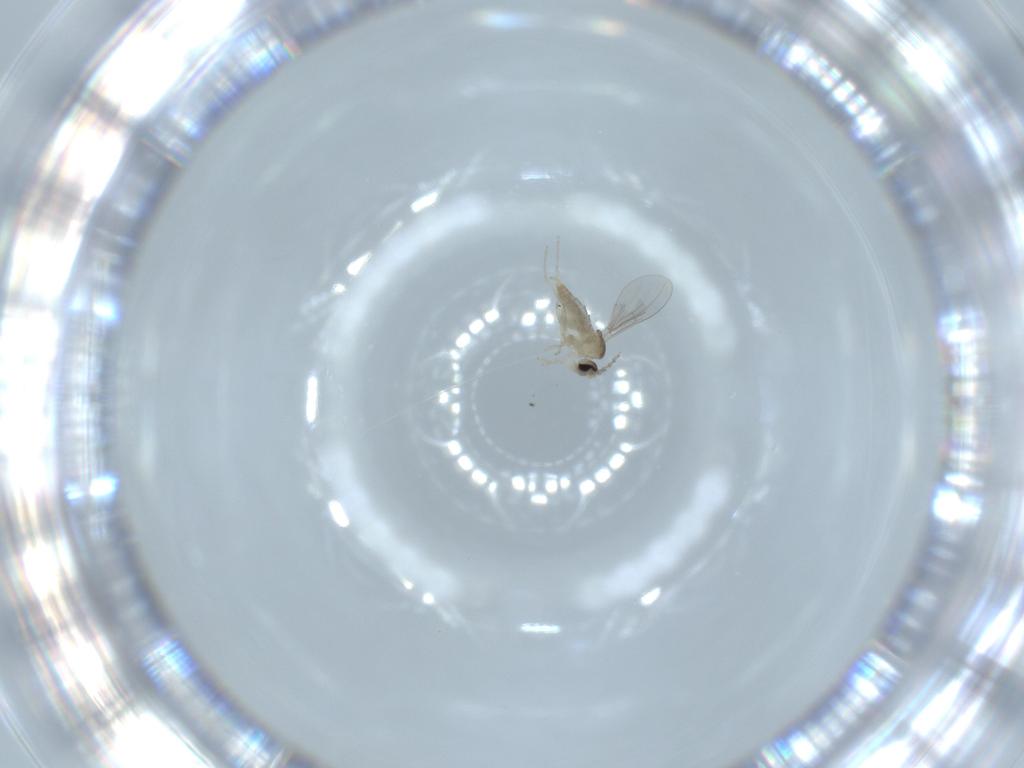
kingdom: Animalia
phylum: Arthropoda
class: Insecta
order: Diptera
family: Cecidomyiidae
